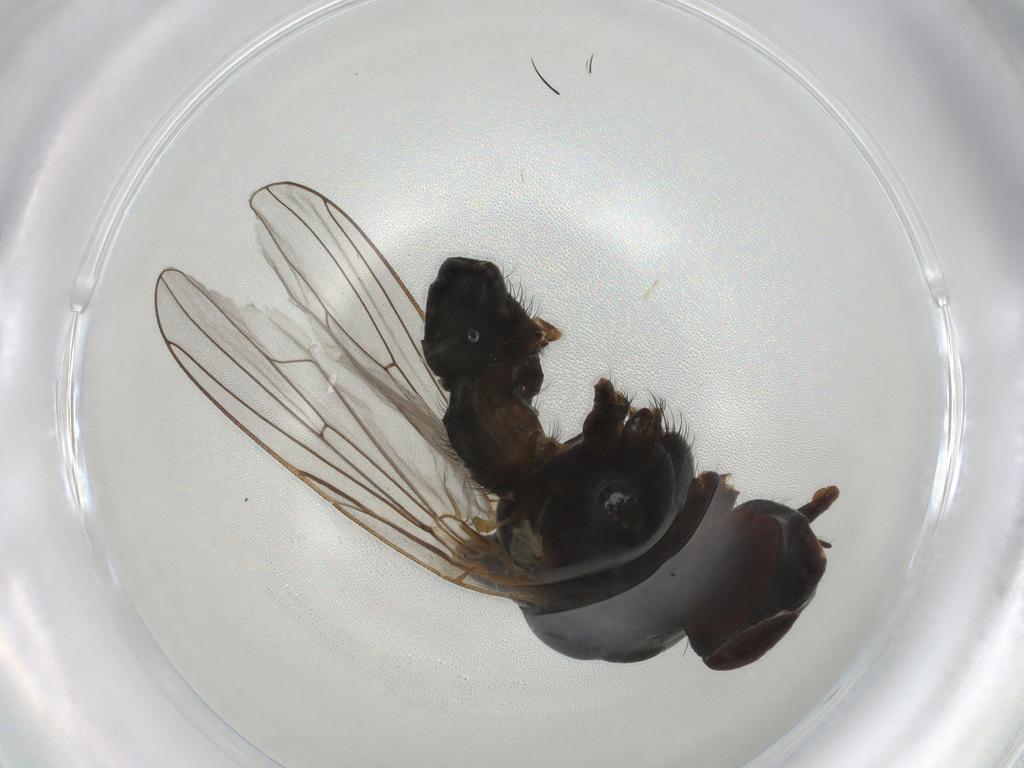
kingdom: Animalia
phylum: Arthropoda
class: Insecta
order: Diptera
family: Anthomyiidae
